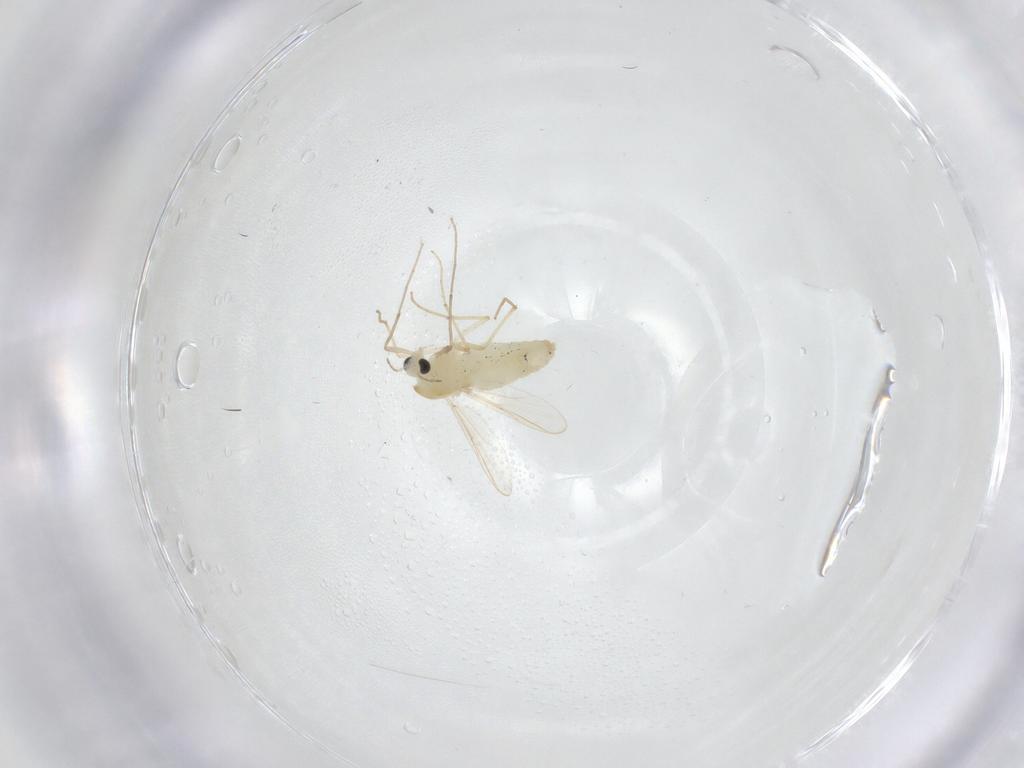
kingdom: Animalia
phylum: Arthropoda
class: Insecta
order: Diptera
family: Chironomidae
